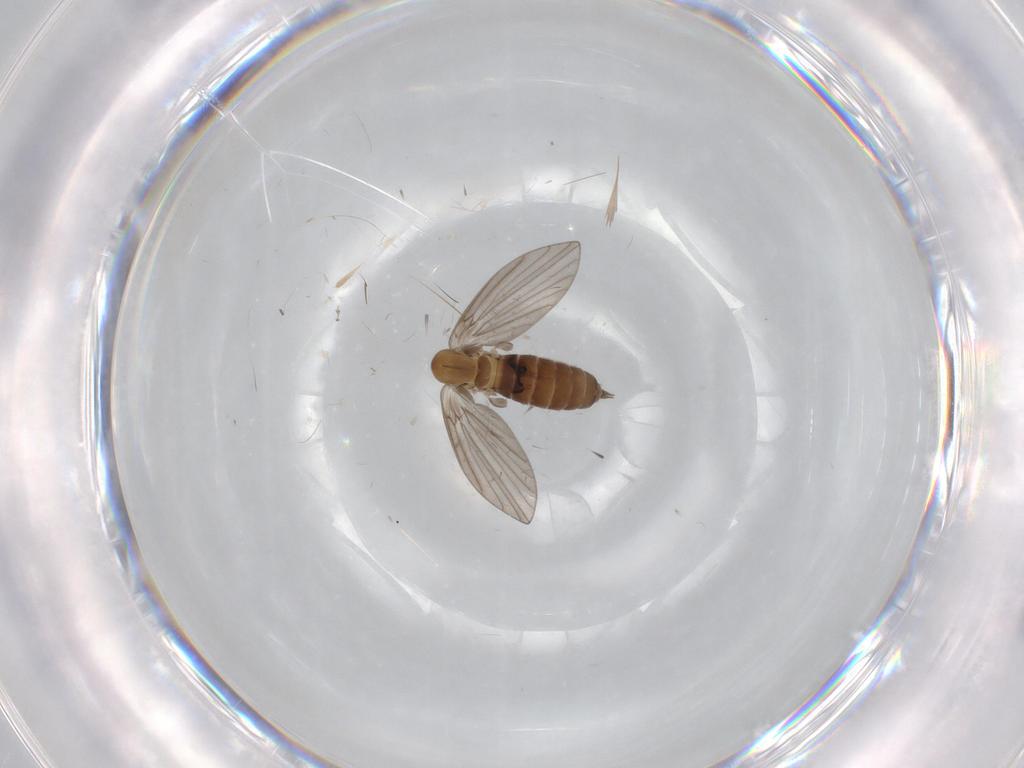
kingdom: Animalia
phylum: Arthropoda
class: Insecta
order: Diptera
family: Cecidomyiidae
